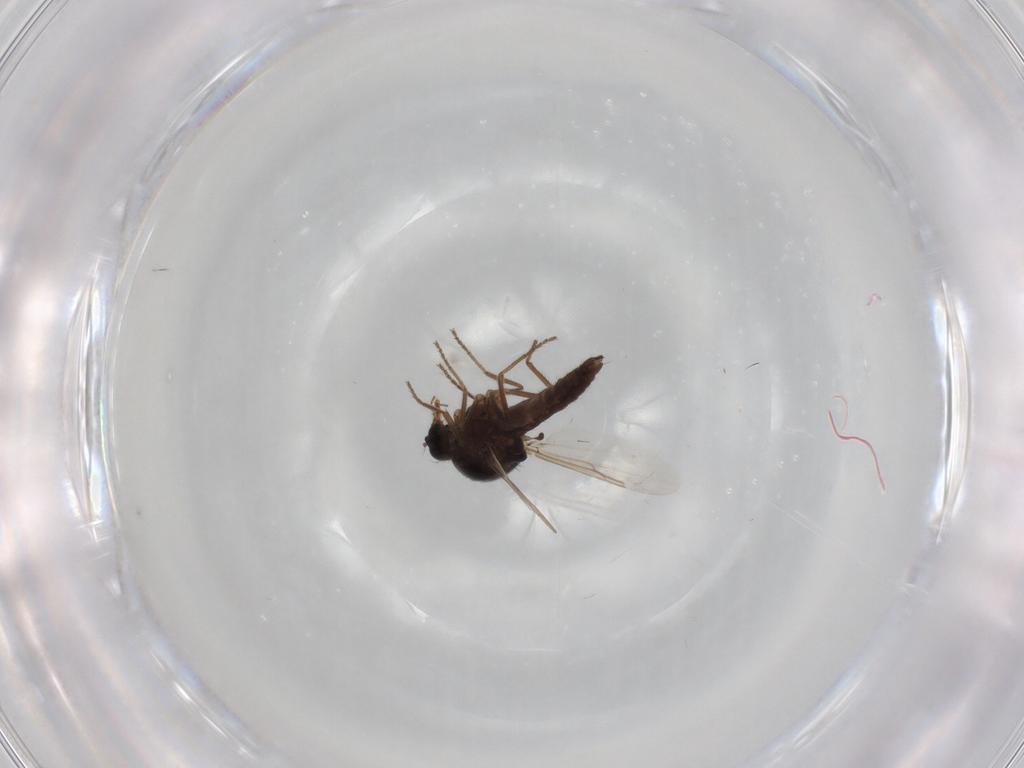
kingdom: Animalia
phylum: Arthropoda
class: Insecta
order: Diptera
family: Ceratopogonidae
